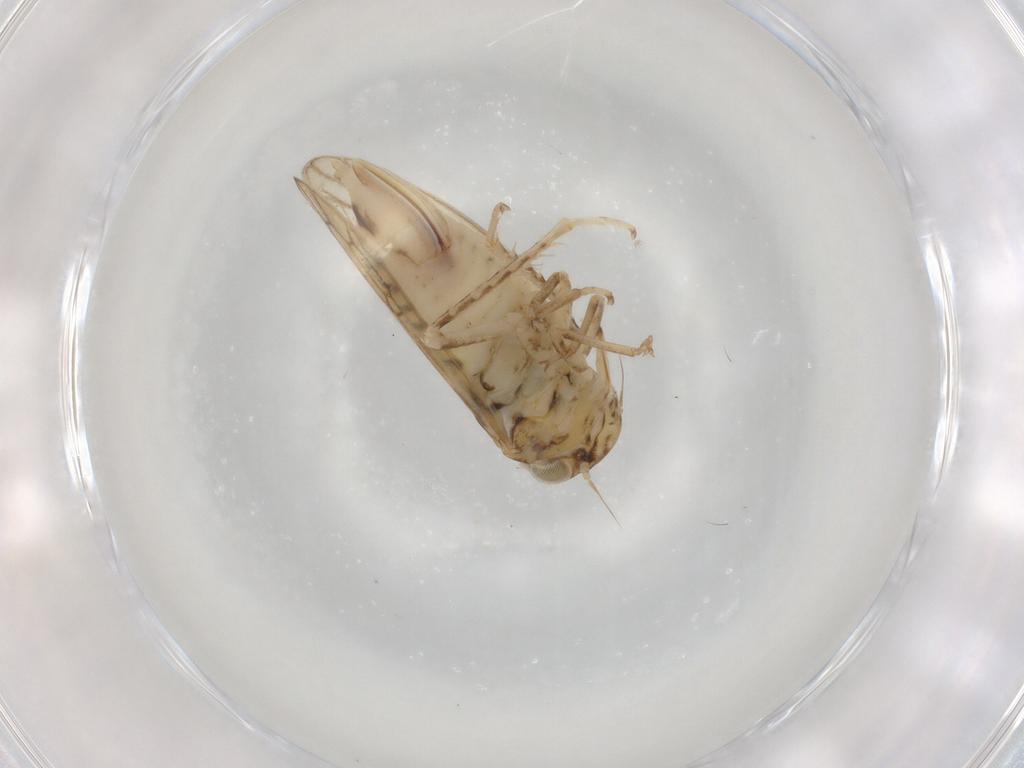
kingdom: Animalia
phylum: Arthropoda
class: Insecta
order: Hemiptera
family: Cicadellidae
